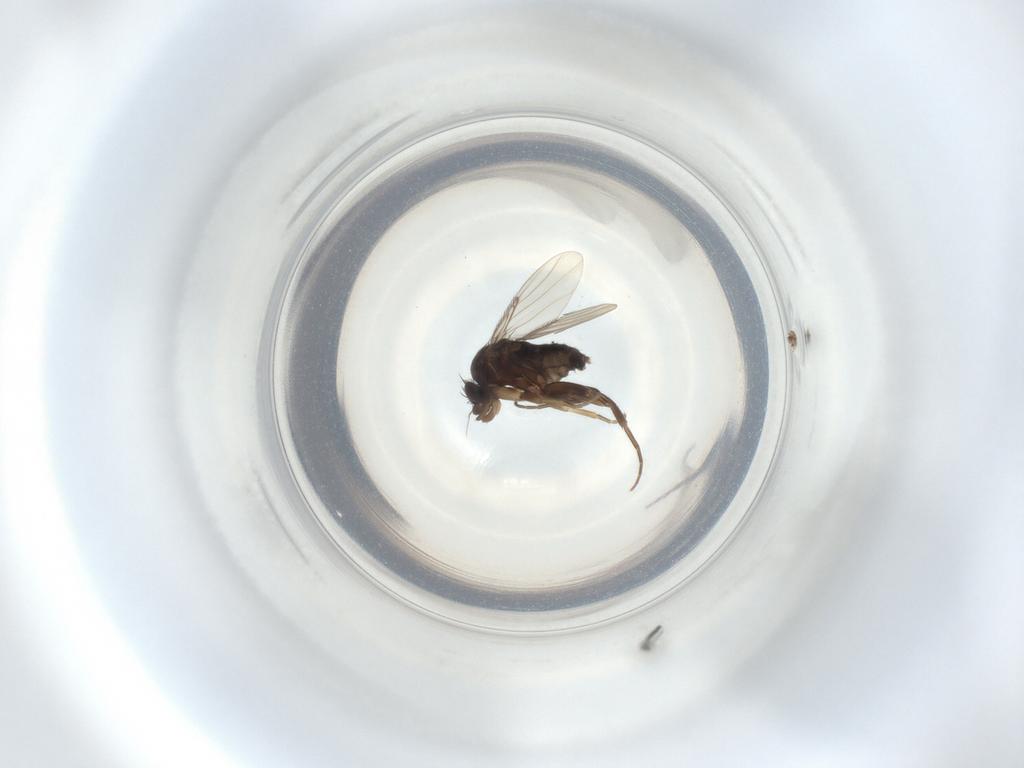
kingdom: Animalia
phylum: Arthropoda
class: Insecta
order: Diptera
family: Phoridae
